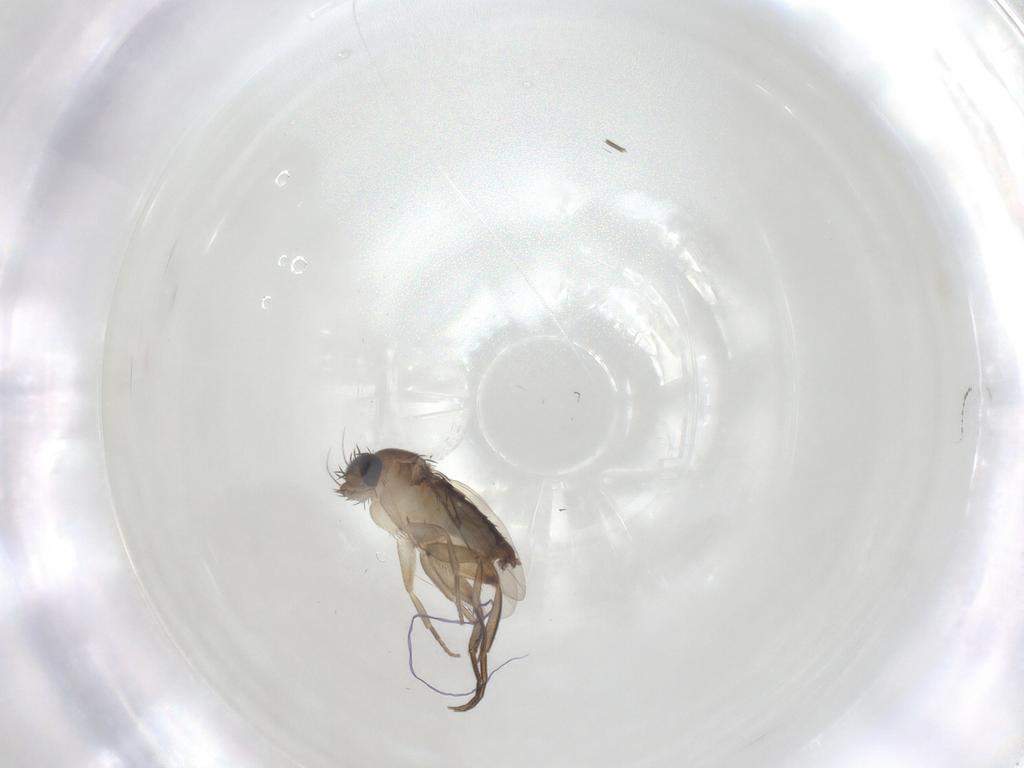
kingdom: Animalia
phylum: Arthropoda
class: Insecta
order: Diptera
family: Phoridae
